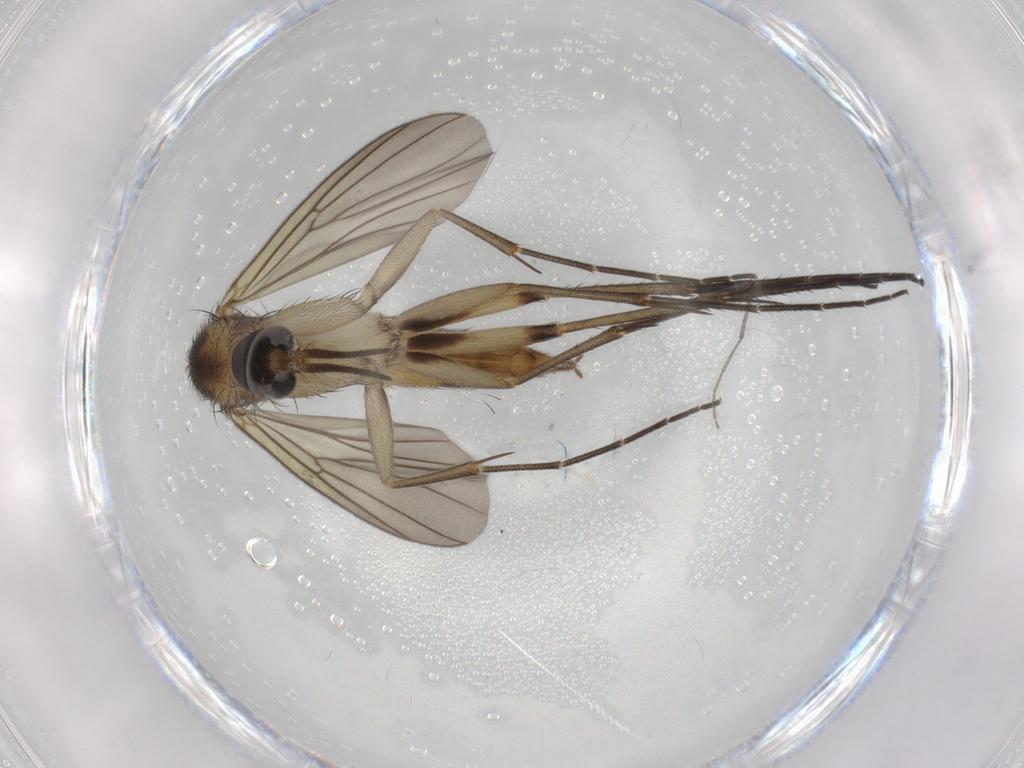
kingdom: Animalia
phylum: Arthropoda
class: Insecta
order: Diptera
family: Mycetophilidae
